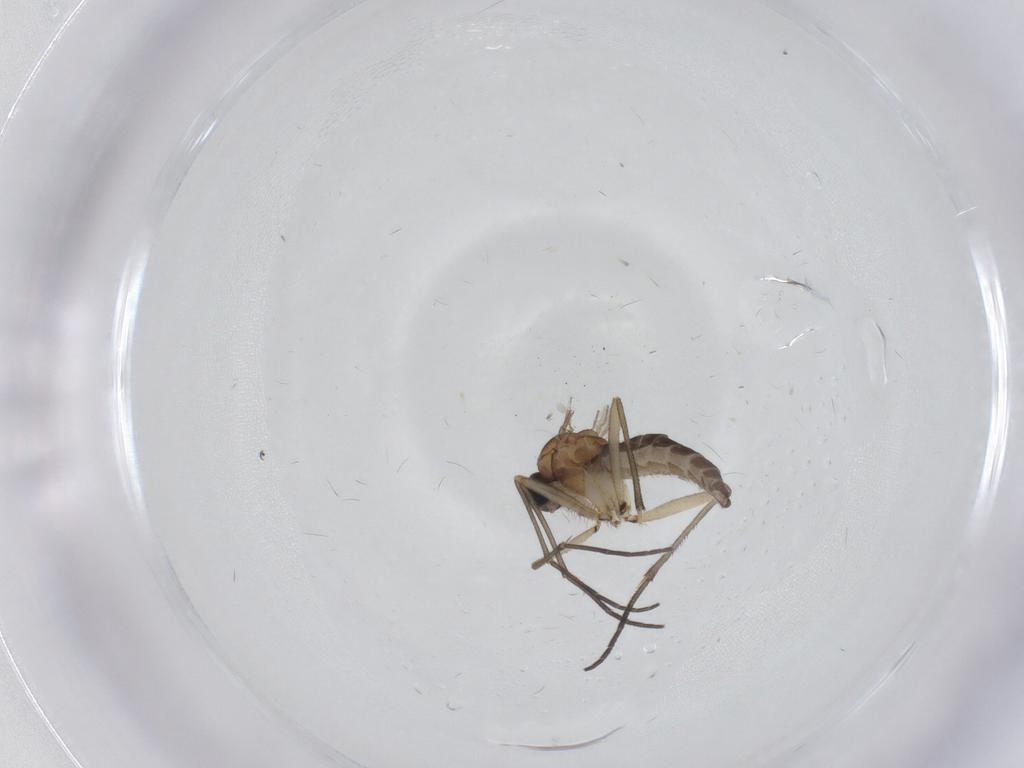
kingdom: Animalia
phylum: Arthropoda
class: Insecta
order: Diptera
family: Sciaridae
